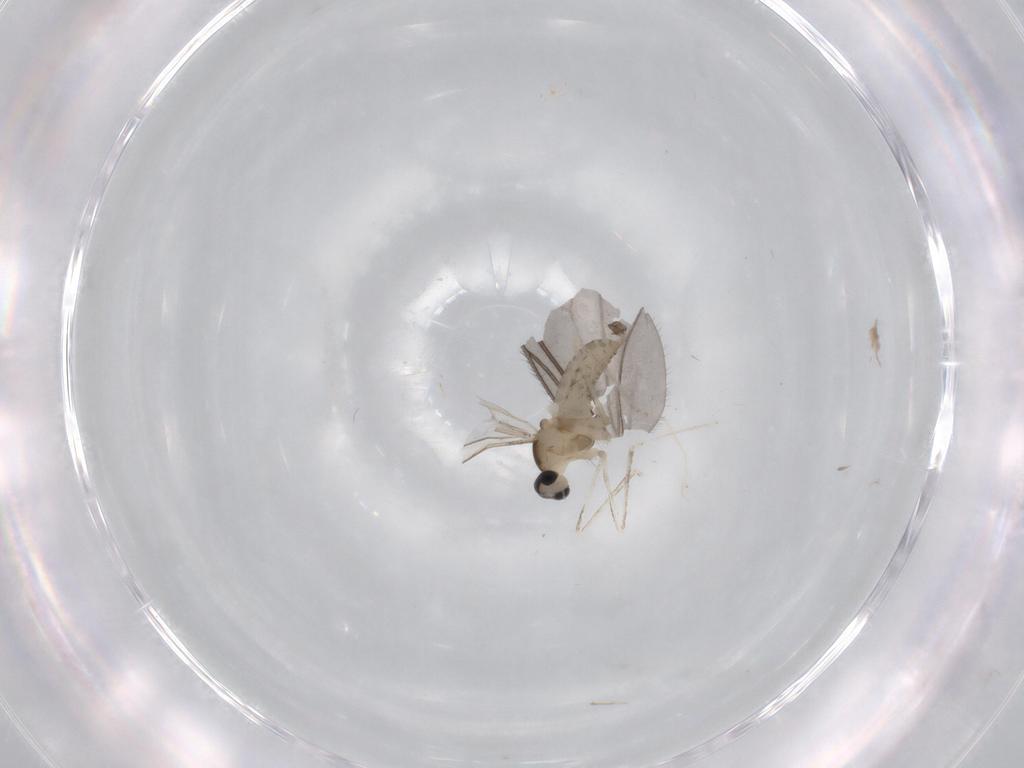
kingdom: Animalia
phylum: Arthropoda
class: Insecta
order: Diptera
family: Cecidomyiidae
